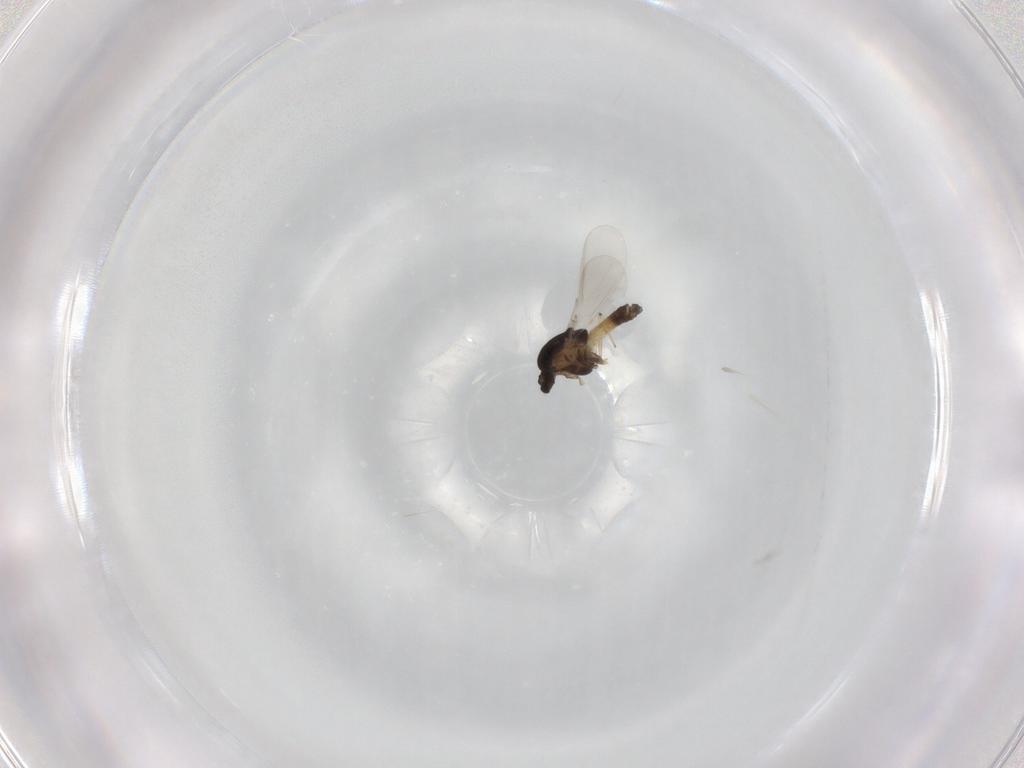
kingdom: Animalia
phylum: Arthropoda
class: Insecta
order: Diptera
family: Chironomidae
